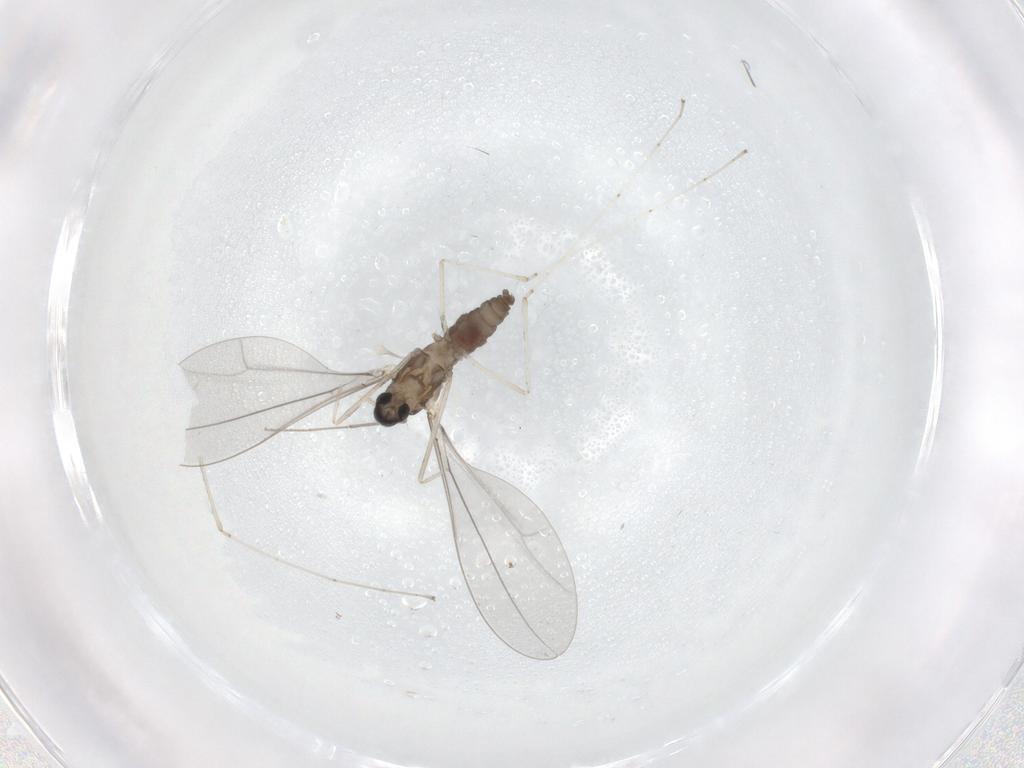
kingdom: Animalia
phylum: Arthropoda
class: Insecta
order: Diptera
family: Cecidomyiidae
